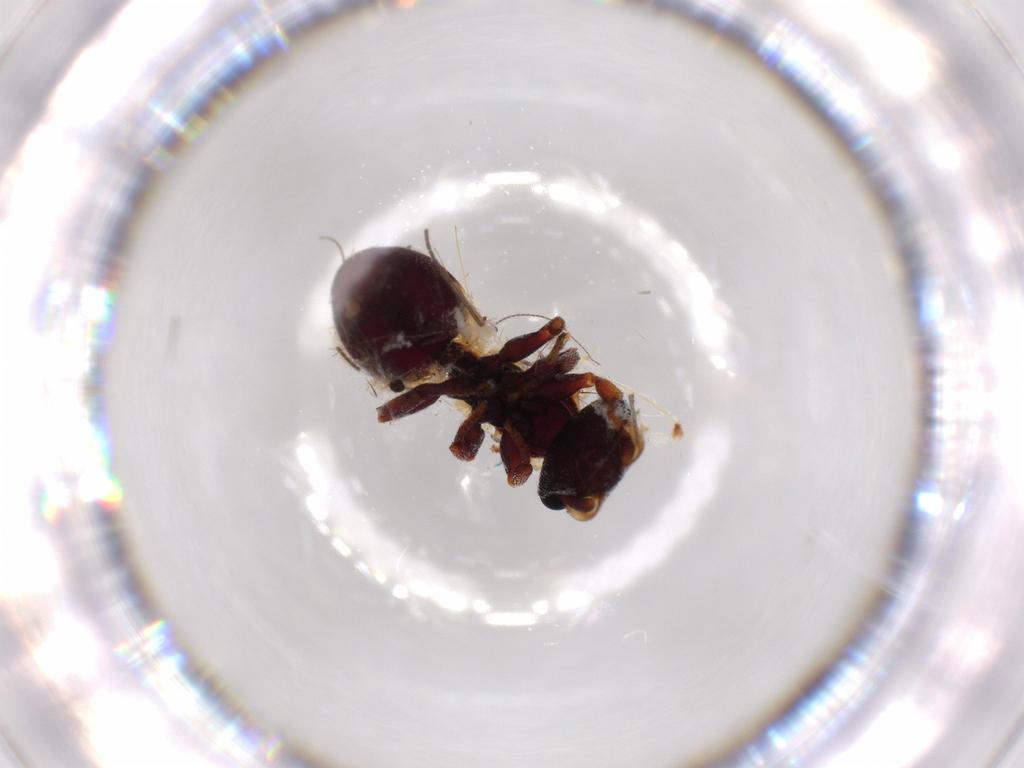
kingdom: Animalia
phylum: Arthropoda
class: Insecta
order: Hymenoptera
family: Formicidae
